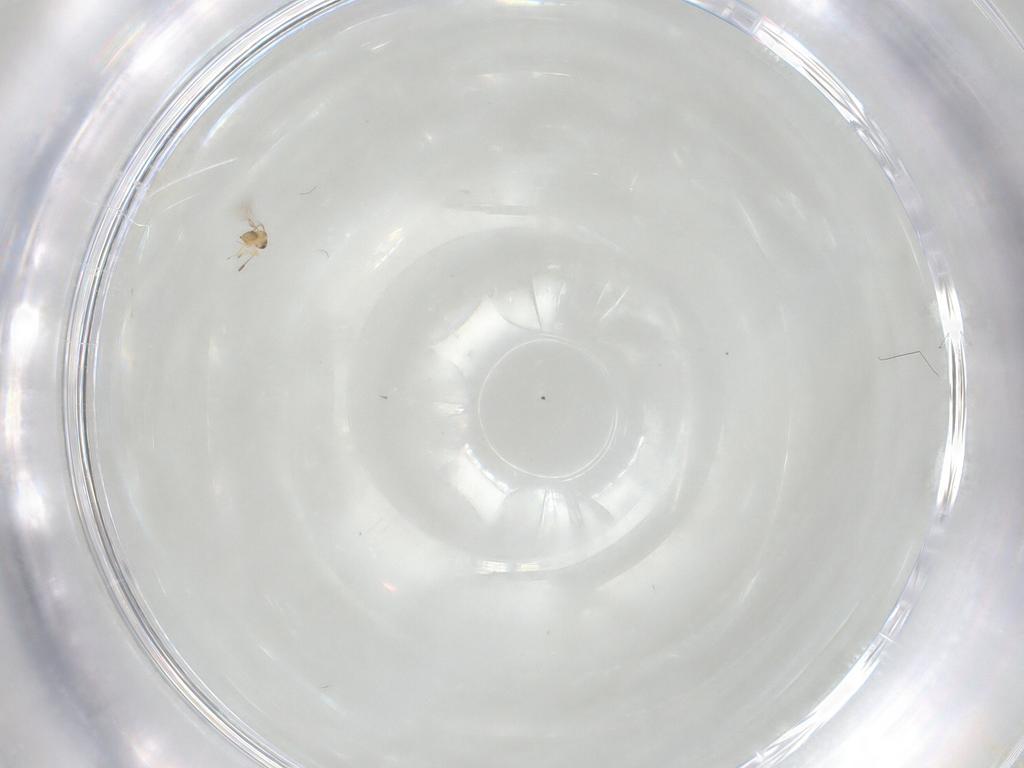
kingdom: Animalia
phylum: Arthropoda
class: Insecta
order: Hymenoptera
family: Mymaridae
